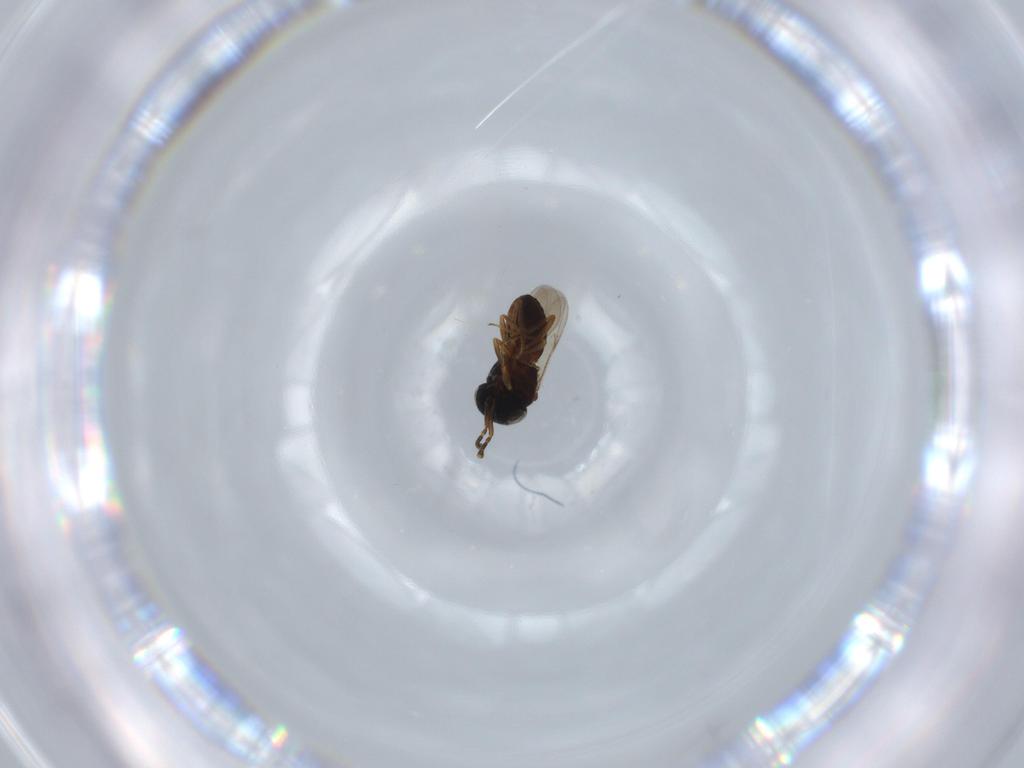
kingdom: Animalia
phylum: Arthropoda
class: Insecta
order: Coleoptera
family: Curculionidae
